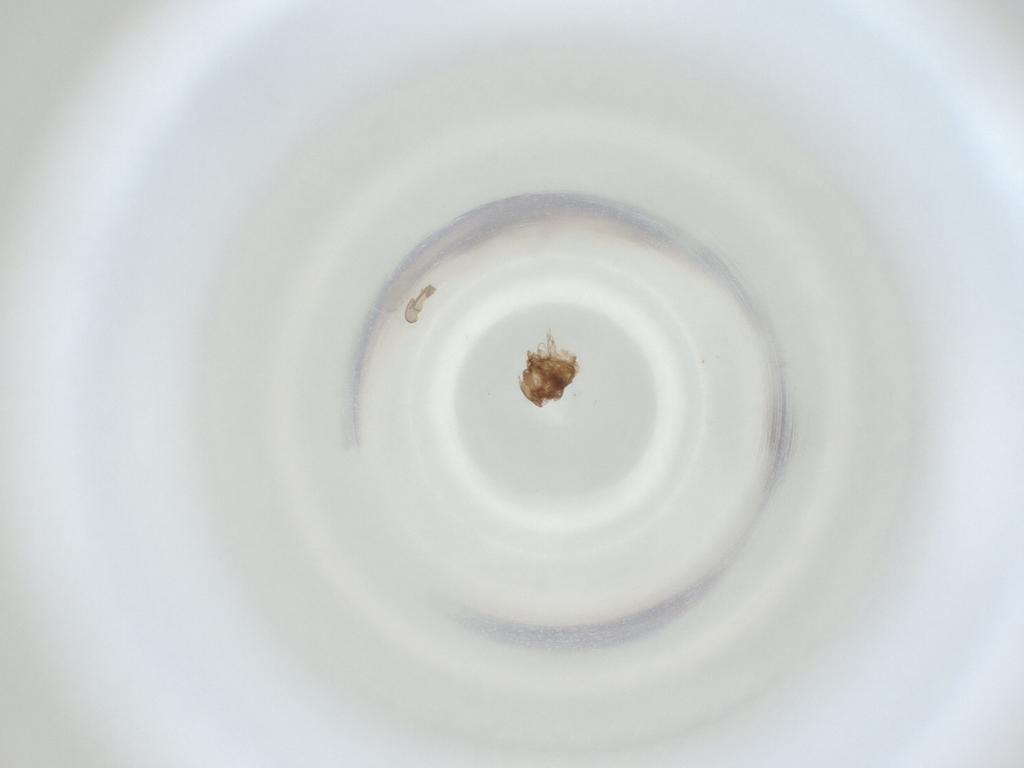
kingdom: Animalia
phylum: Arthropoda
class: Insecta
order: Diptera
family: Cecidomyiidae
